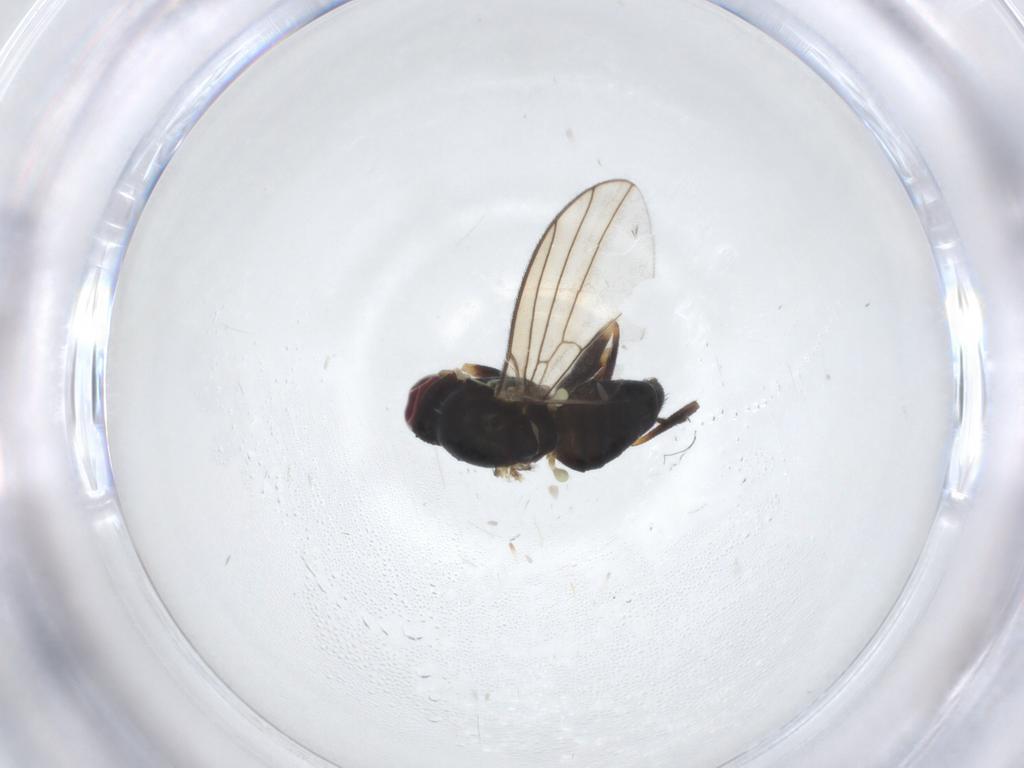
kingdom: Animalia
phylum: Arthropoda
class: Insecta
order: Diptera
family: Agromyzidae
